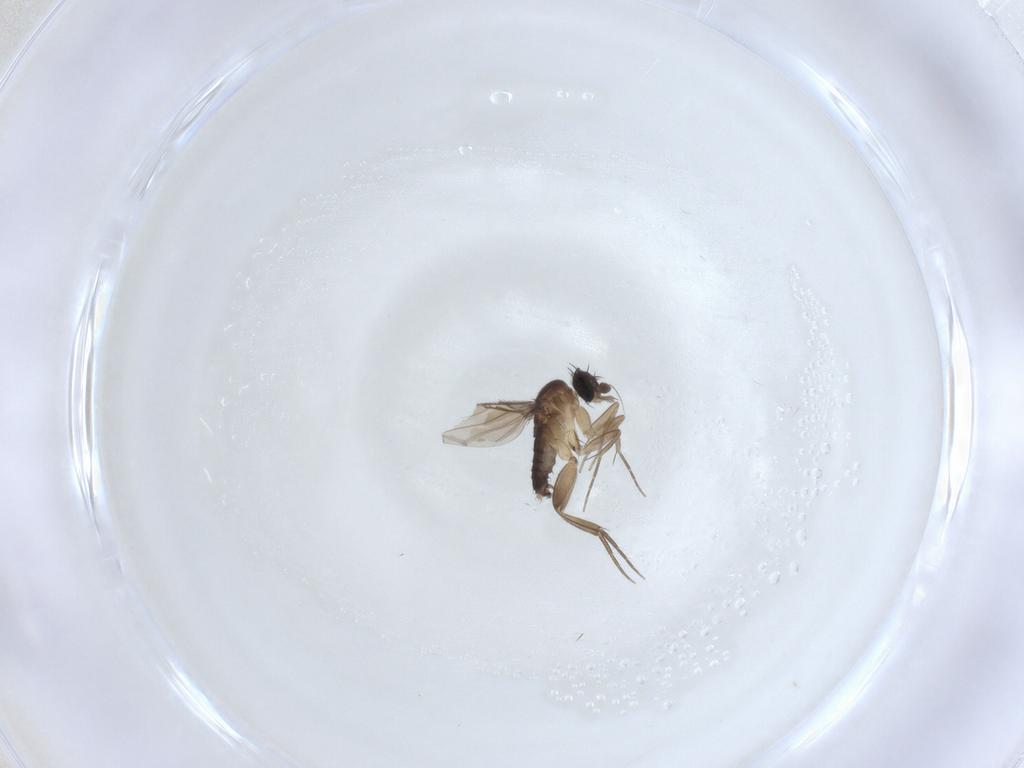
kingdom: Animalia
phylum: Arthropoda
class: Insecta
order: Diptera
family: Phoridae
